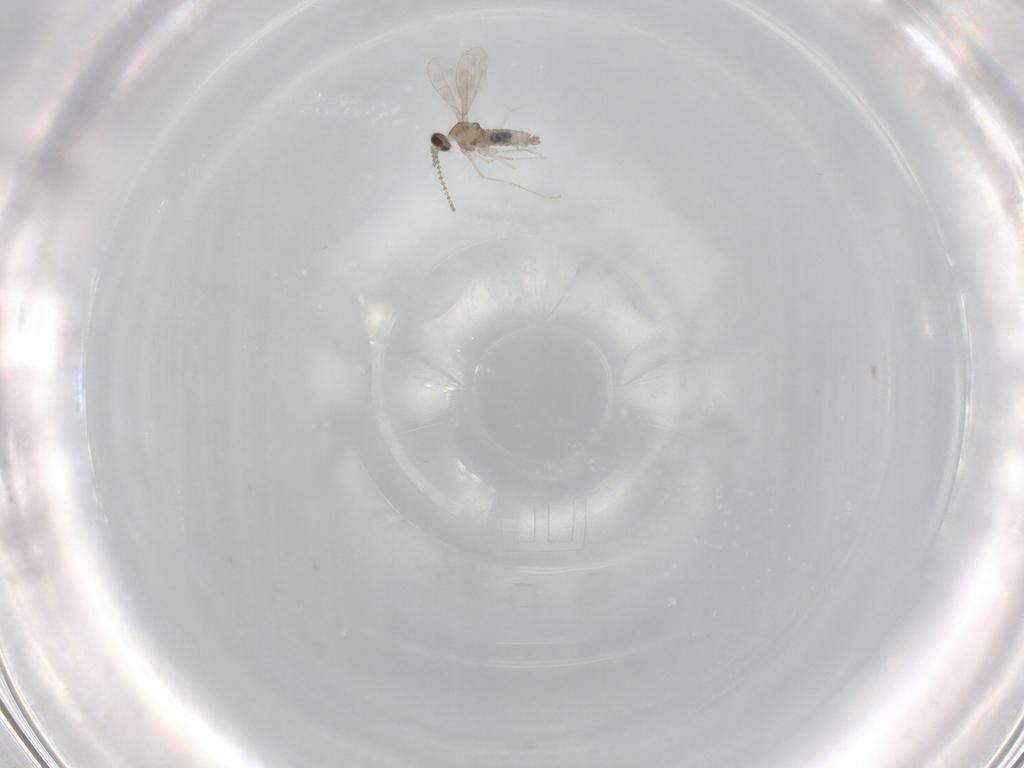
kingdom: Animalia
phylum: Arthropoda
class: Insecta
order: Diptera
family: Cecidomyiidae
